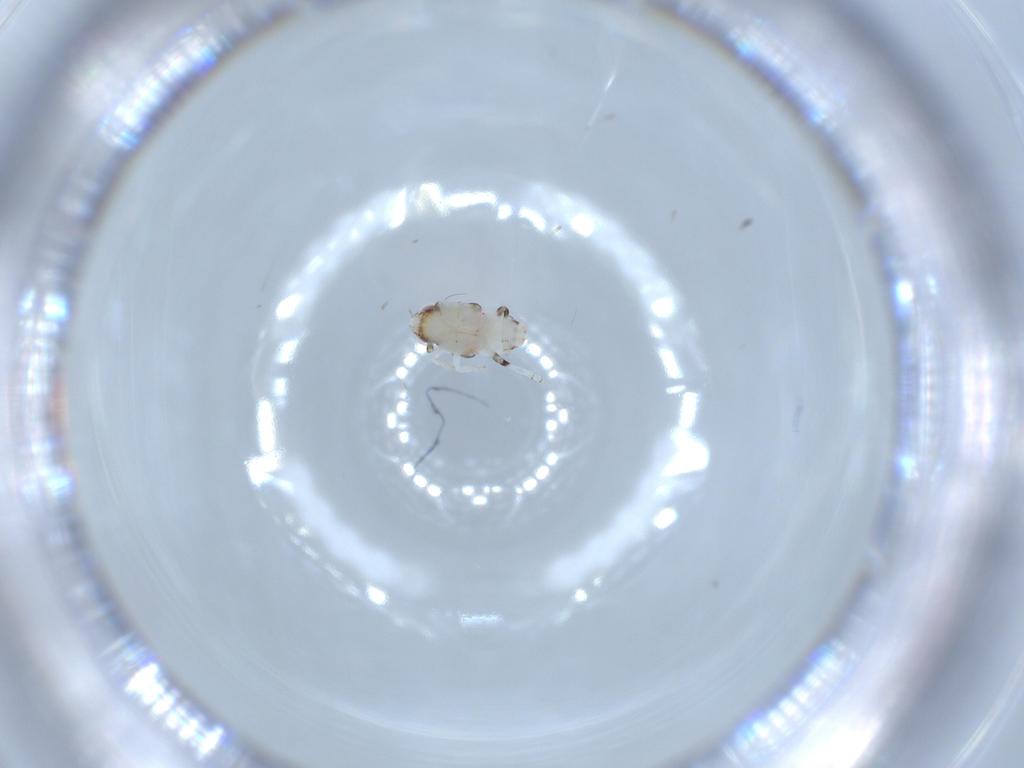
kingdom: Animalia
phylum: Arthropoda
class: Insecta
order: Hemiptera
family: Nogodinidae
